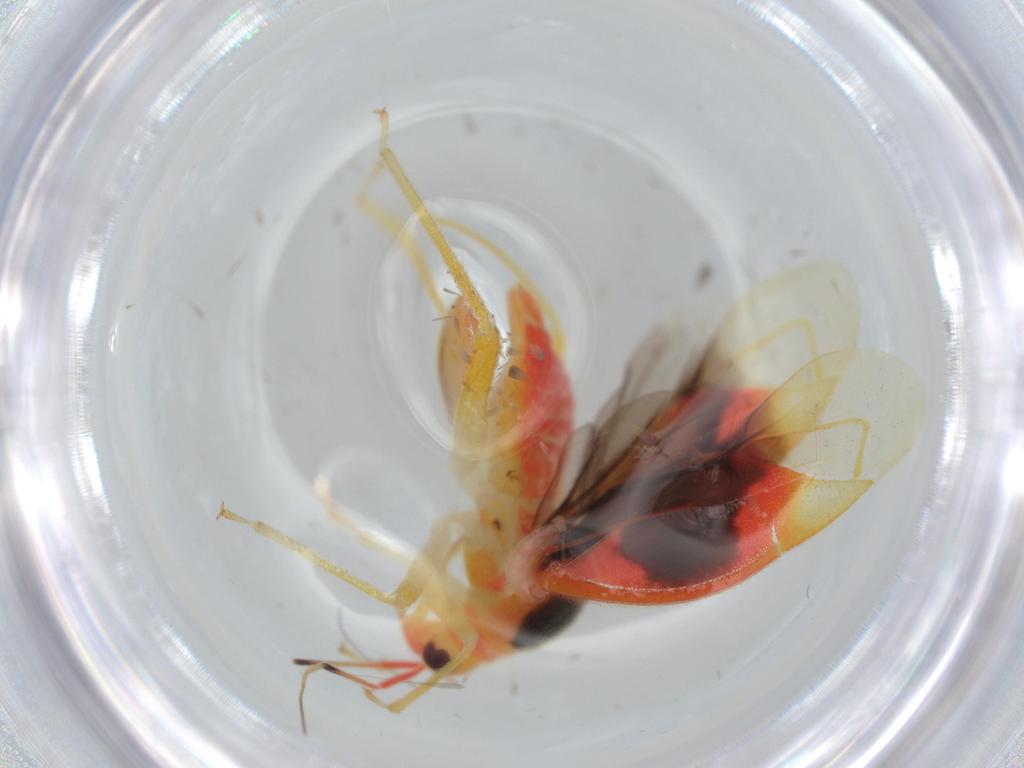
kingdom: Animalia
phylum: Arthropoda
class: Insecta
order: Hemiptera
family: Miridae
